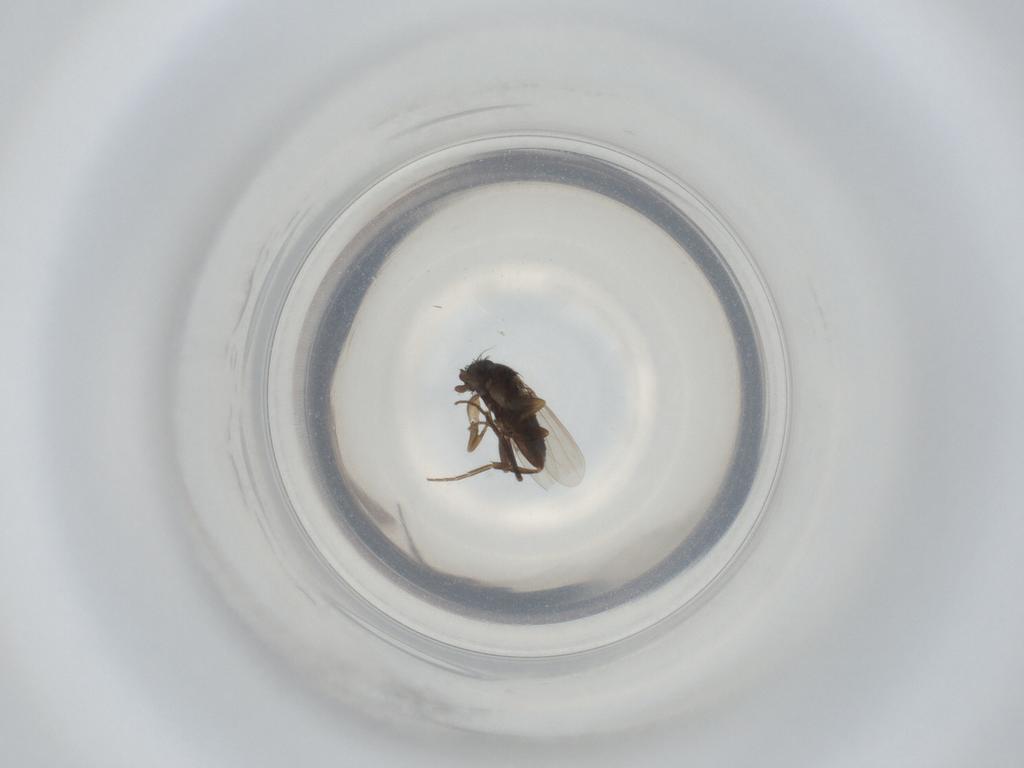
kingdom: Animalia
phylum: Arthropoda
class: Insecta
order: Diptera
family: Phoridae
